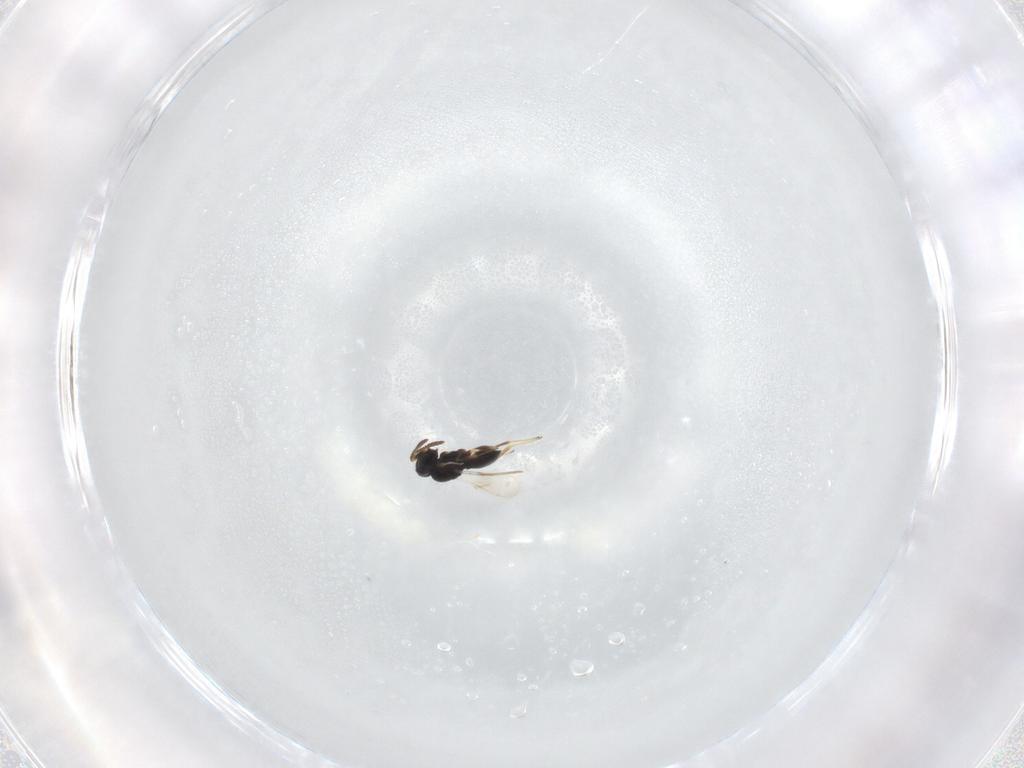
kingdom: Animalia
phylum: Arthropoda
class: Insecta
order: Hymenoptera
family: Scelionidae
